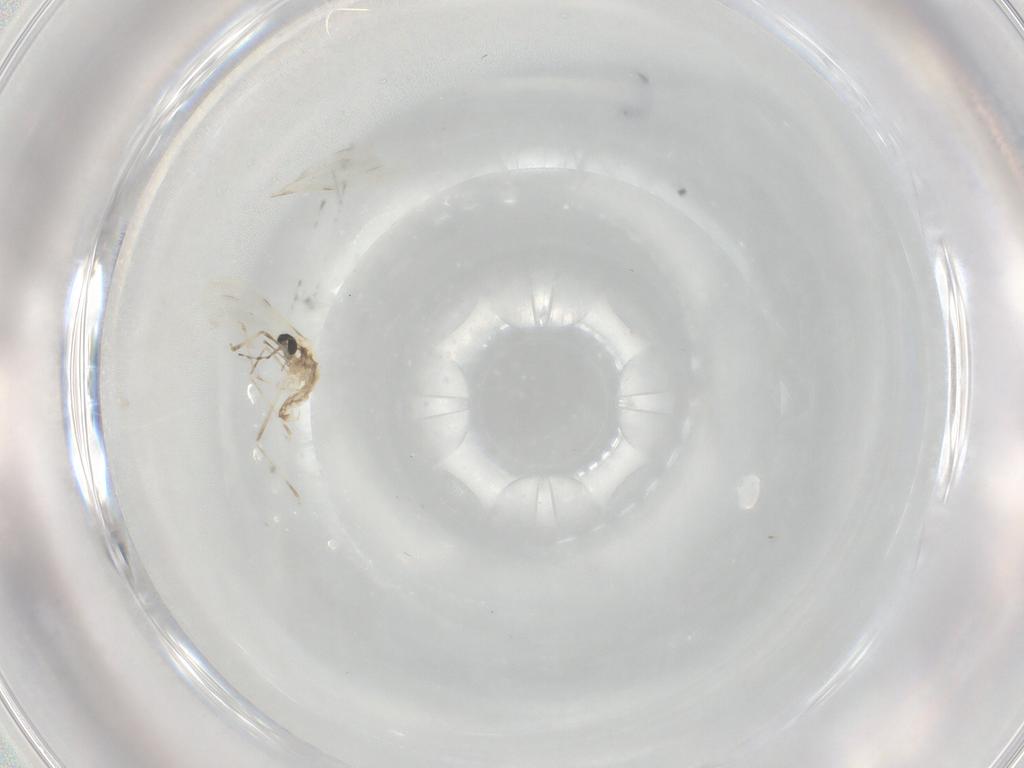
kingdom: Animalia
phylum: Arthropoda
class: Insecta
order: Diptera
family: Cecidomyiidae
